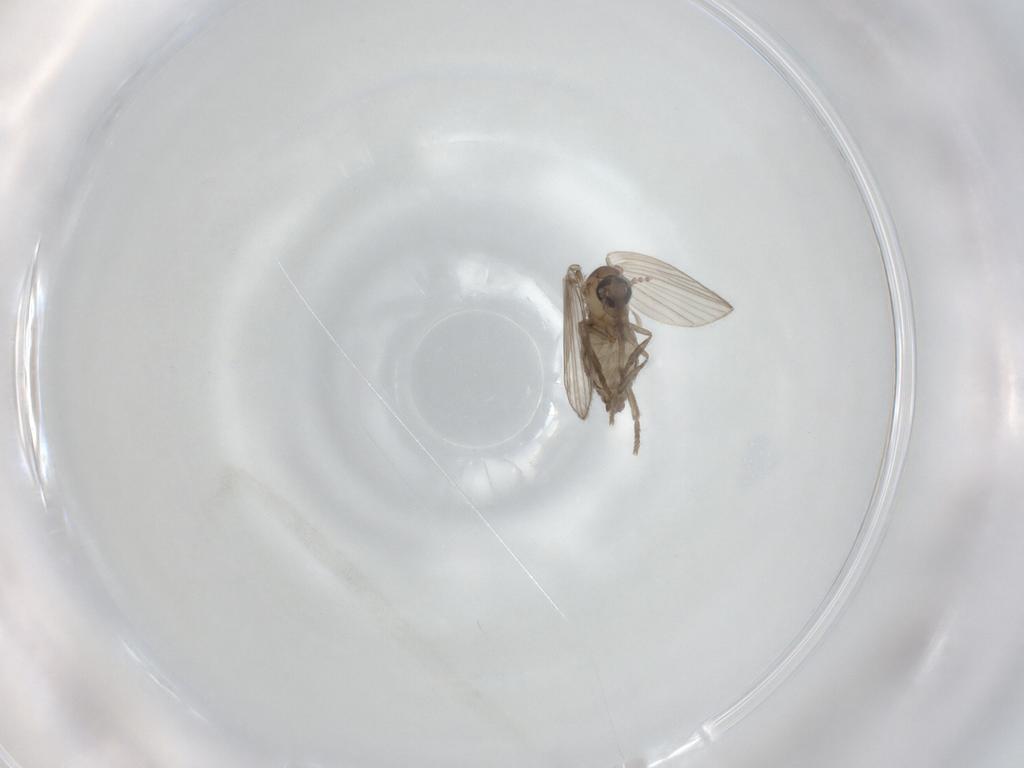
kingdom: Animalia
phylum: Arthropoda
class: Insecta
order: Diptera
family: Psychodidae
